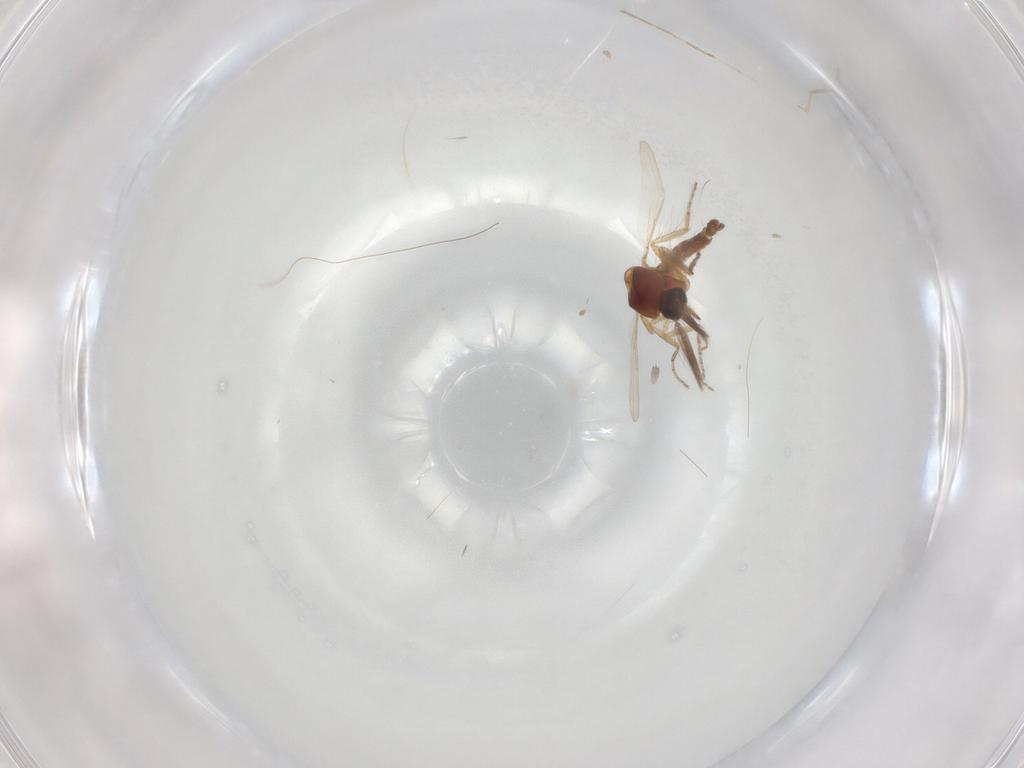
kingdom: Animalia
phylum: Arthropoda
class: Insecta
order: Diptera
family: Ceratopogonidae
